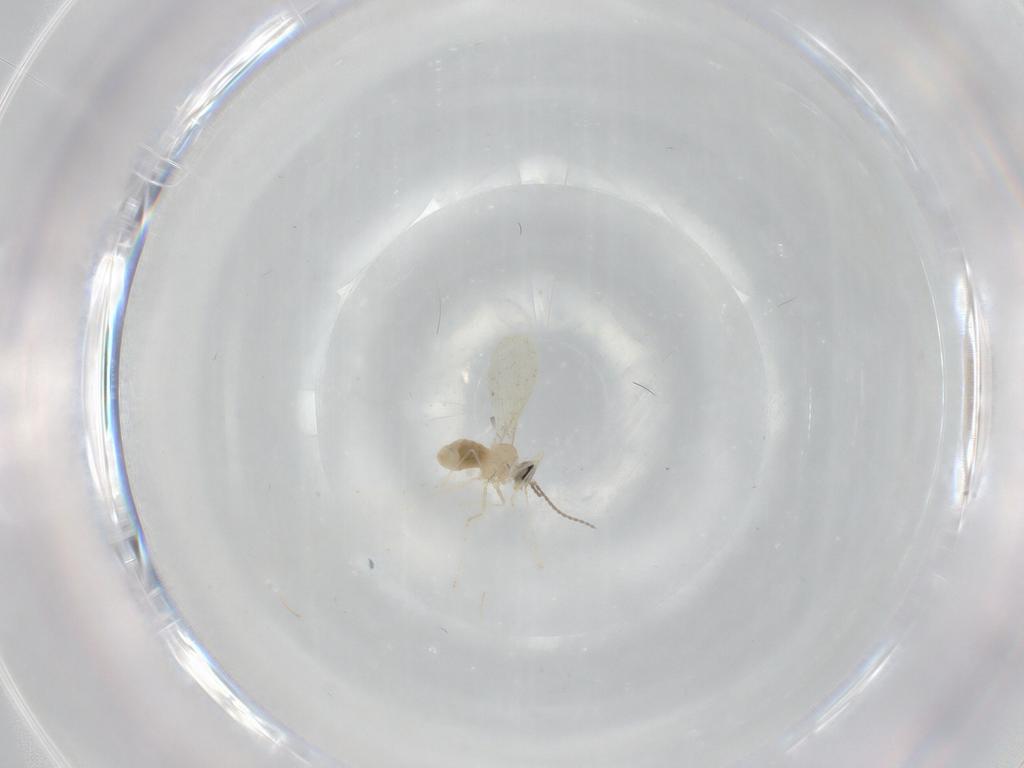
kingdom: Animalia
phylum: Arthropoda
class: Insecta
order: Diptera
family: Cecidomyiidae
